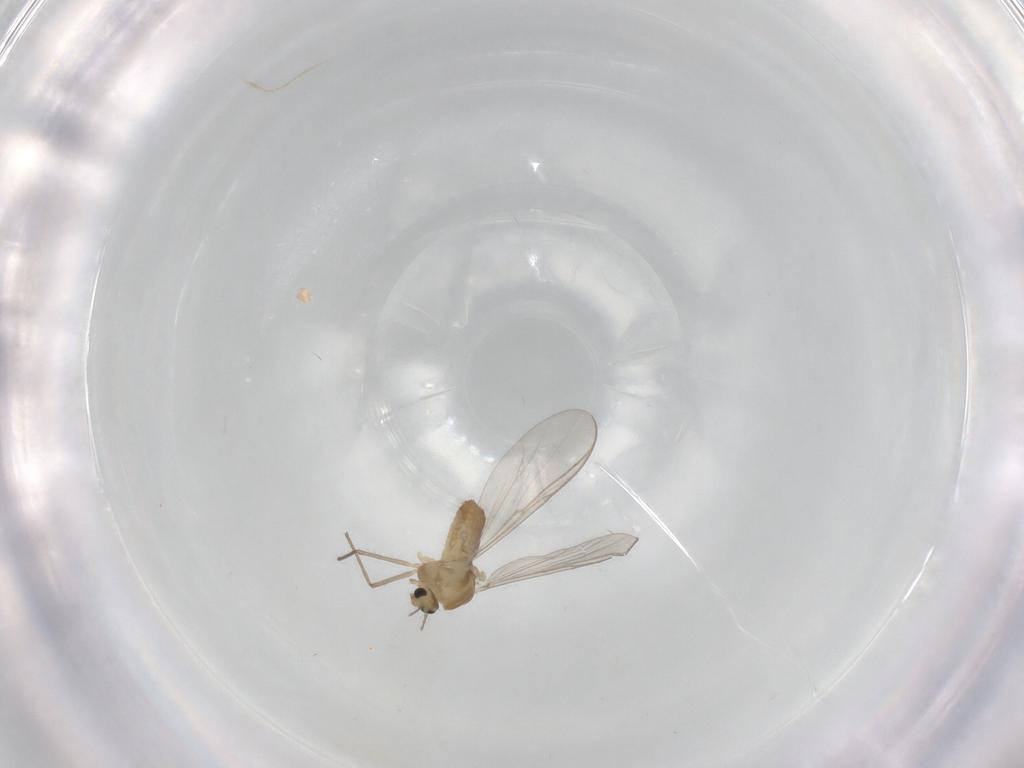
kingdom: Animalia
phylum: Arthropoda
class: Insecta
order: Diptera
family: Chironomidae
